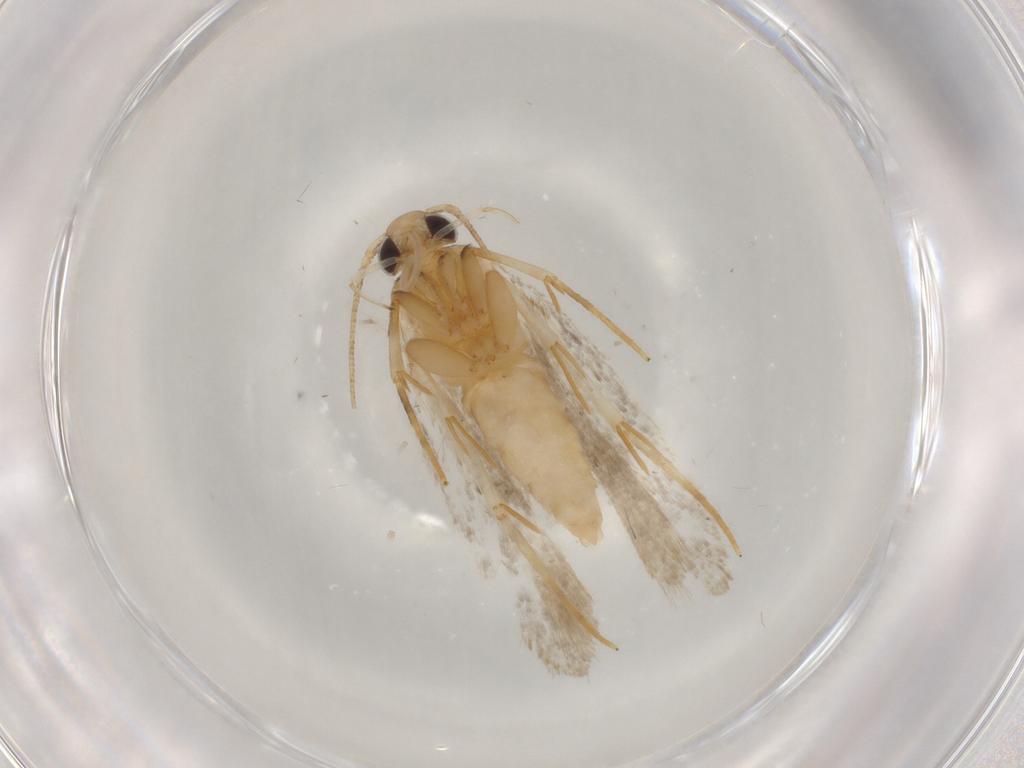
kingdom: Animalia
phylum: Arthropoda
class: Insecta
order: Lepidoptera
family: Autostichidae
